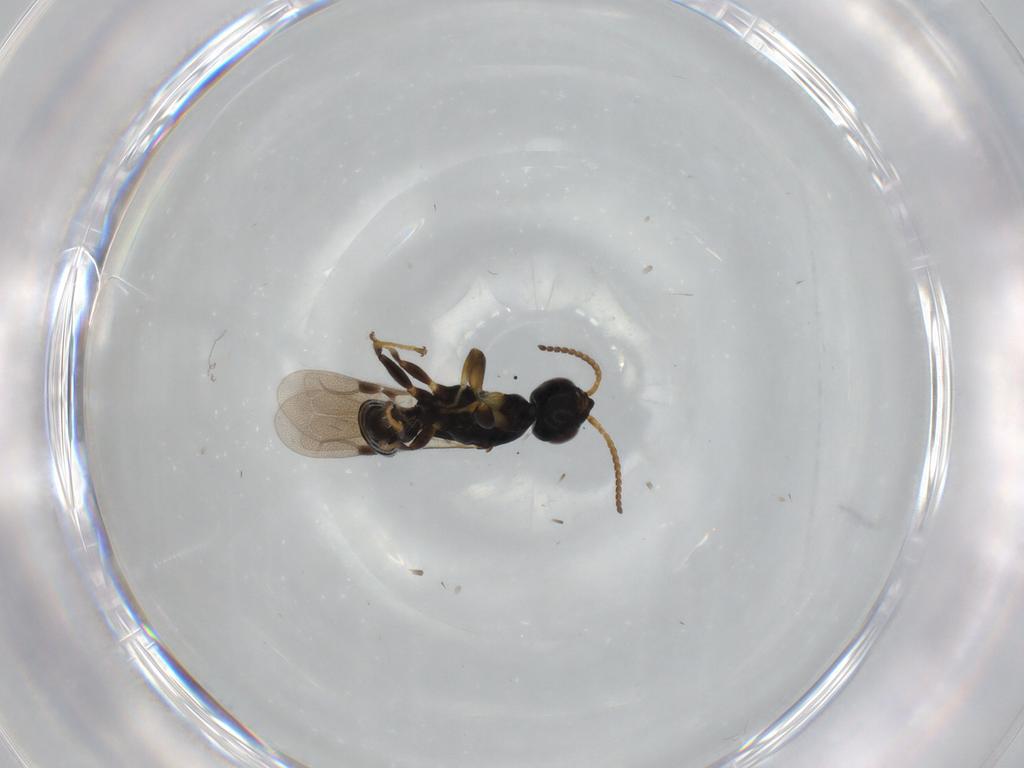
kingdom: Animalia
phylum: Arthropoda
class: Insecta
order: Hymenoptera
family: Bethylidae
